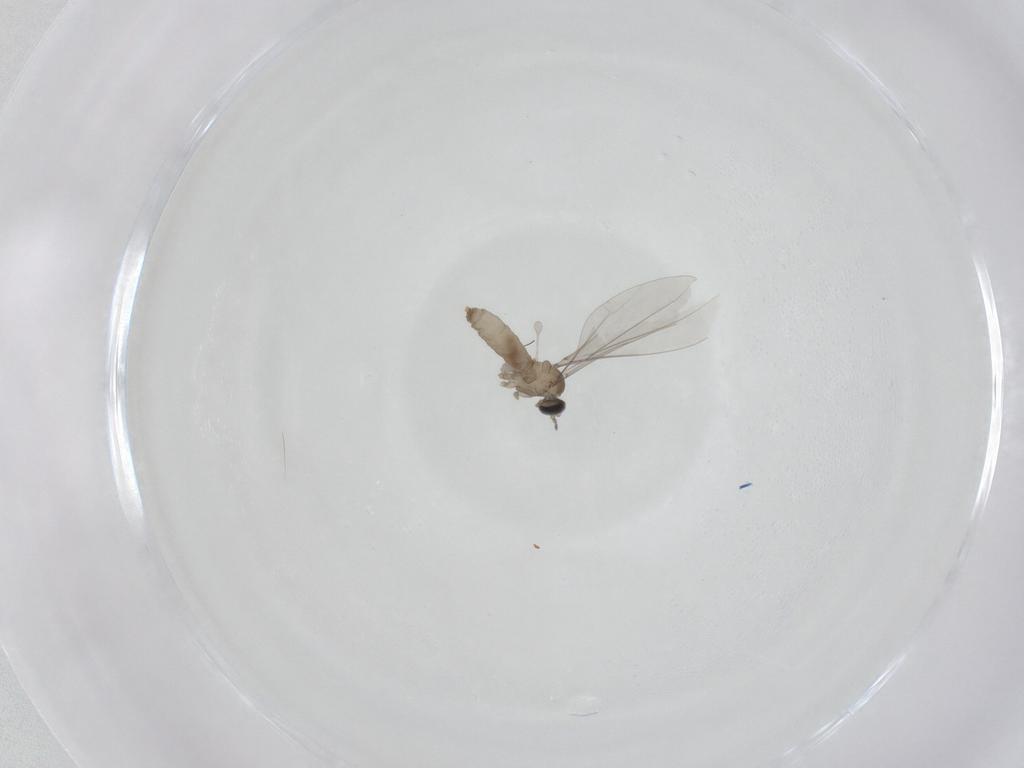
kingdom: Animalia
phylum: Arthropoda
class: Insecta
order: Diptera
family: Cecidomyiidae
